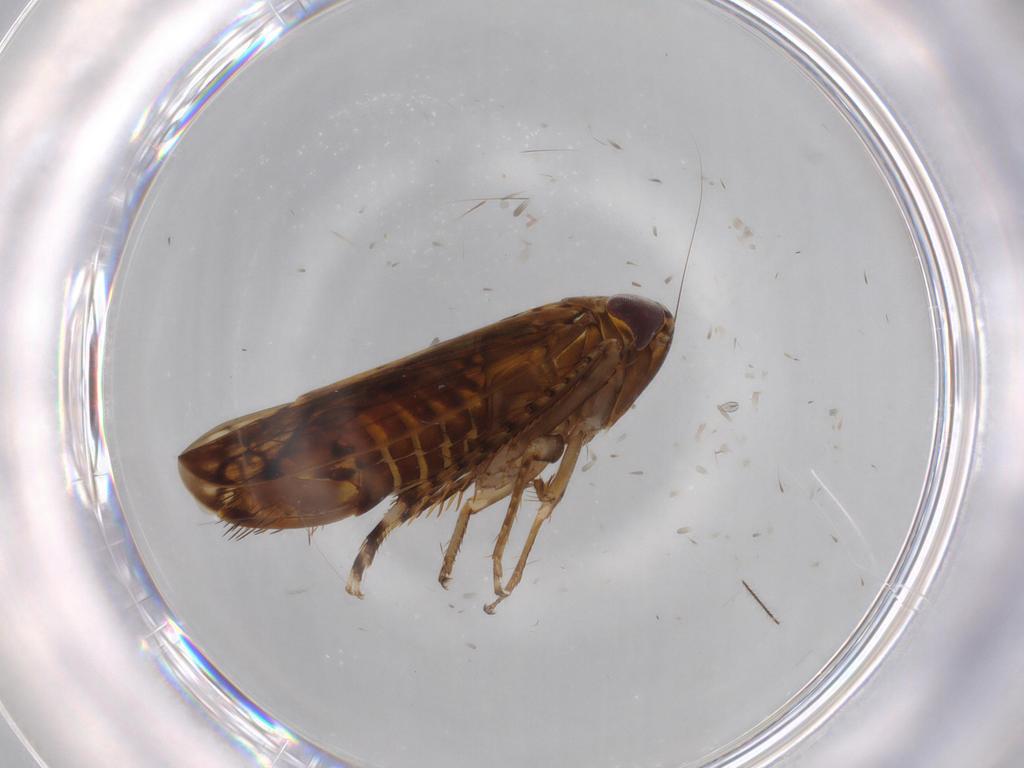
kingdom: Animalia
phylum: Arthropoda
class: Insecta
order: Hemiptera
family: Cicadellidae
